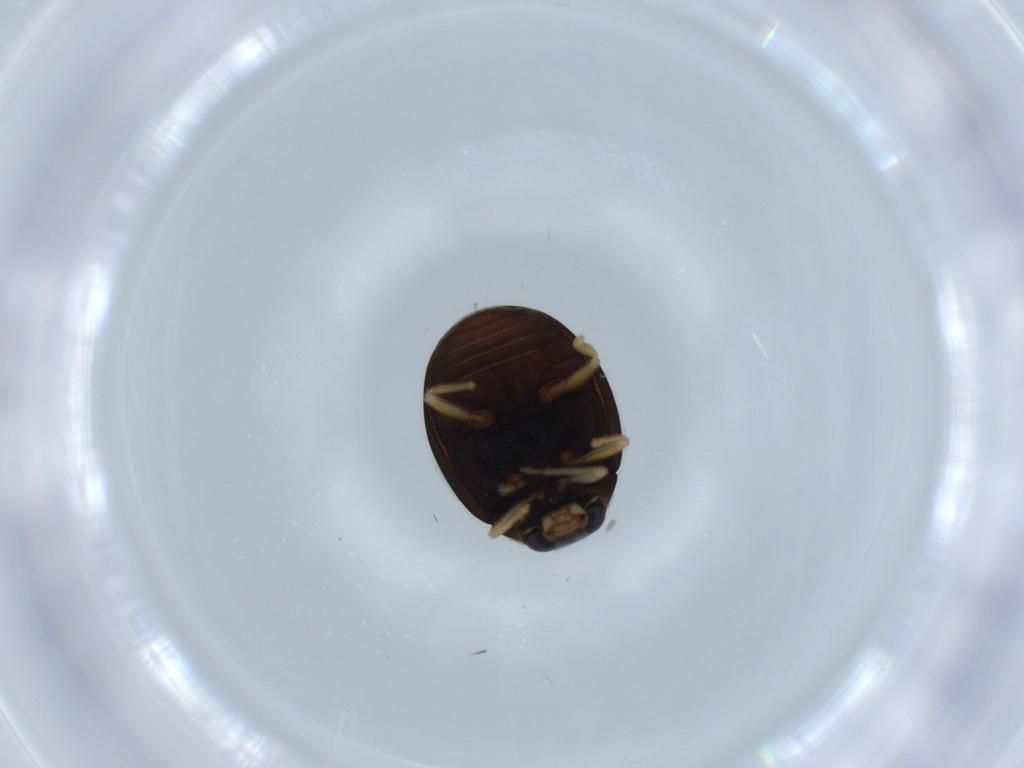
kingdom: Animalia
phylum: Arthropoda
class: Insecta
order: Coleoptera
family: Coccinellidae
